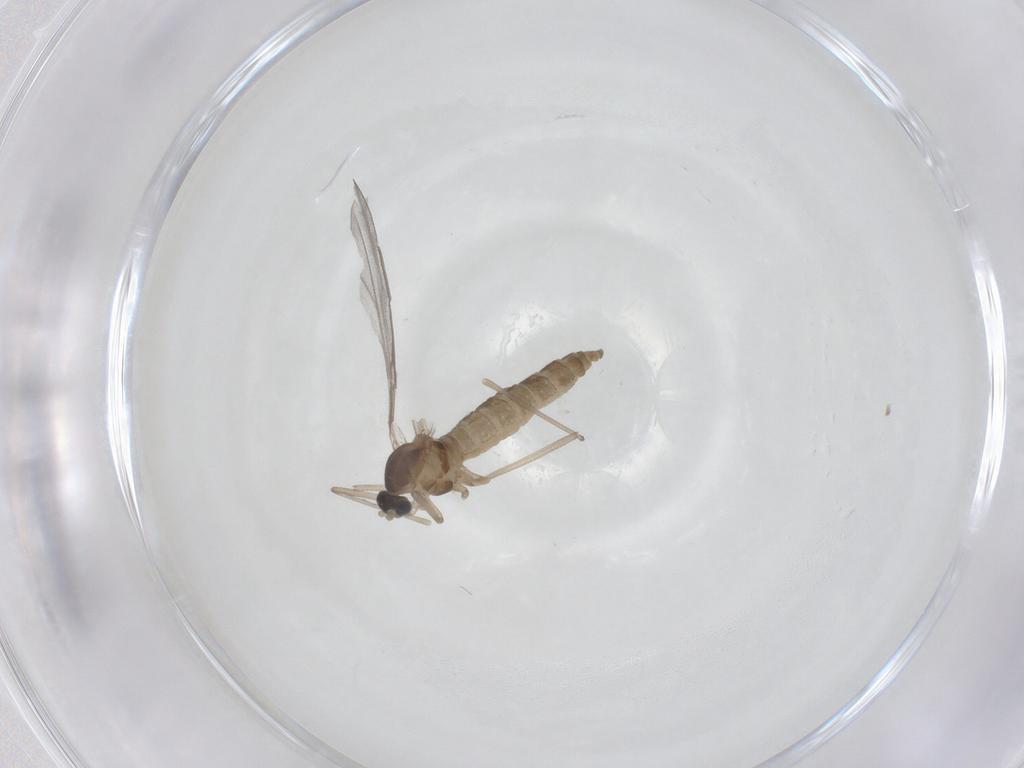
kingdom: Animalia
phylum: Arthropoda
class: Insecta
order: Diptera
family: Cecidomyiidae
